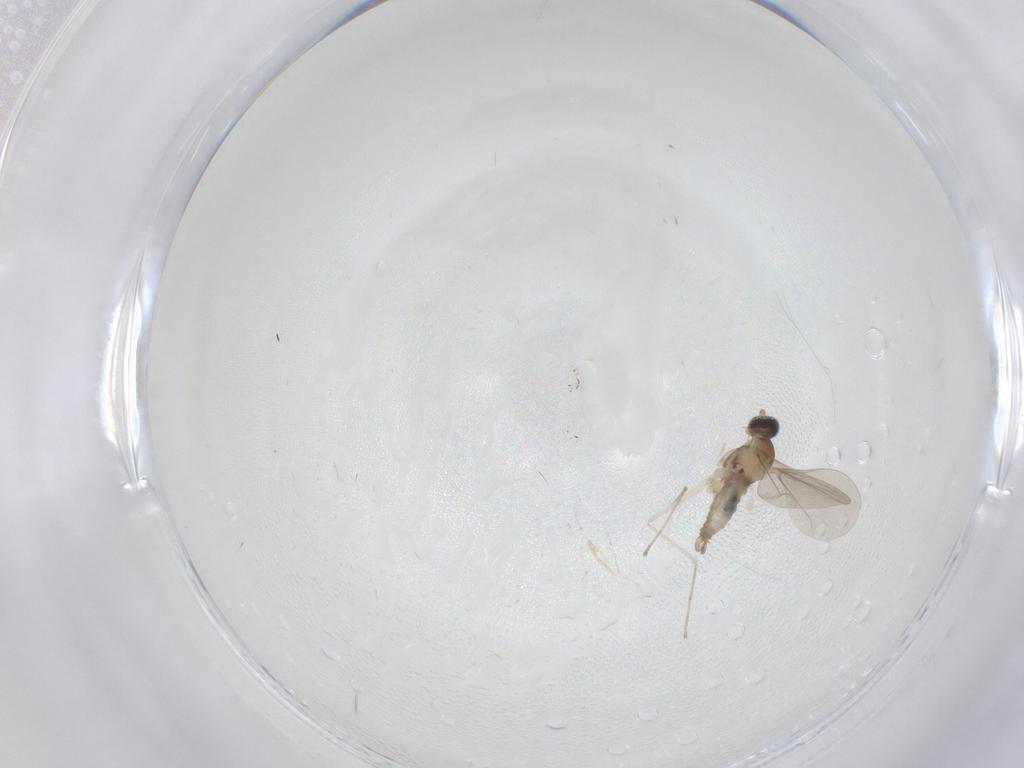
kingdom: Animalia
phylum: Arthropoda
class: Insecta
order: Diptera
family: Cecidomyiidae
